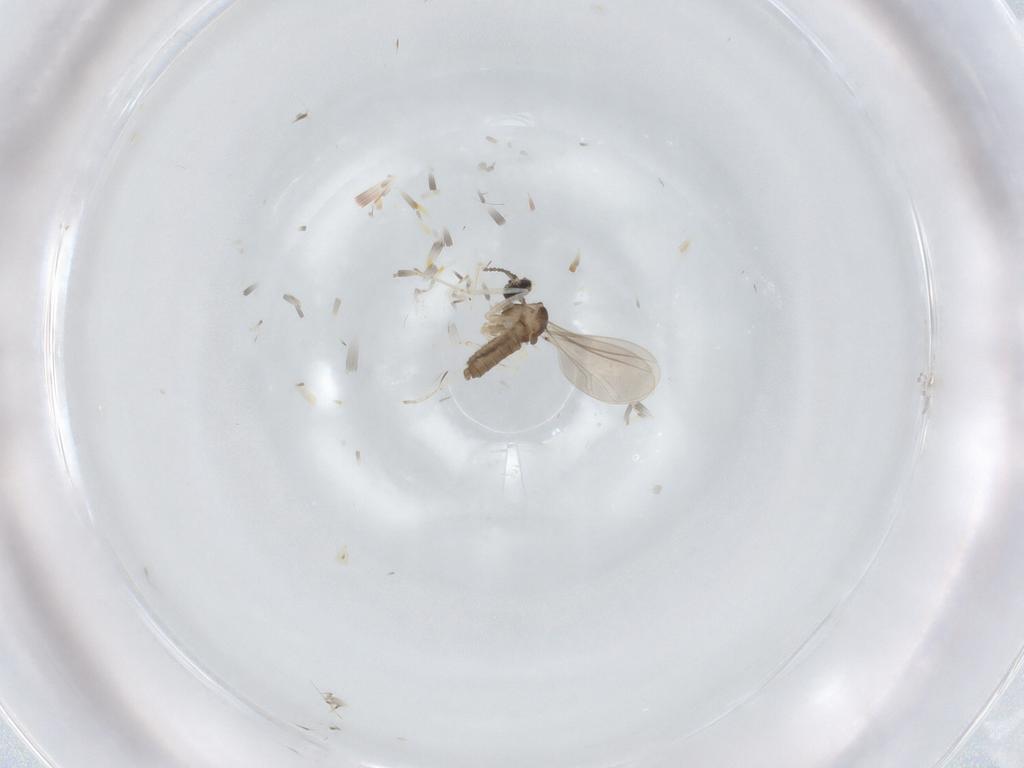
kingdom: Animalia
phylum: Arthropoda
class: Insecta
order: Diptera
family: Cecidomyiidae
